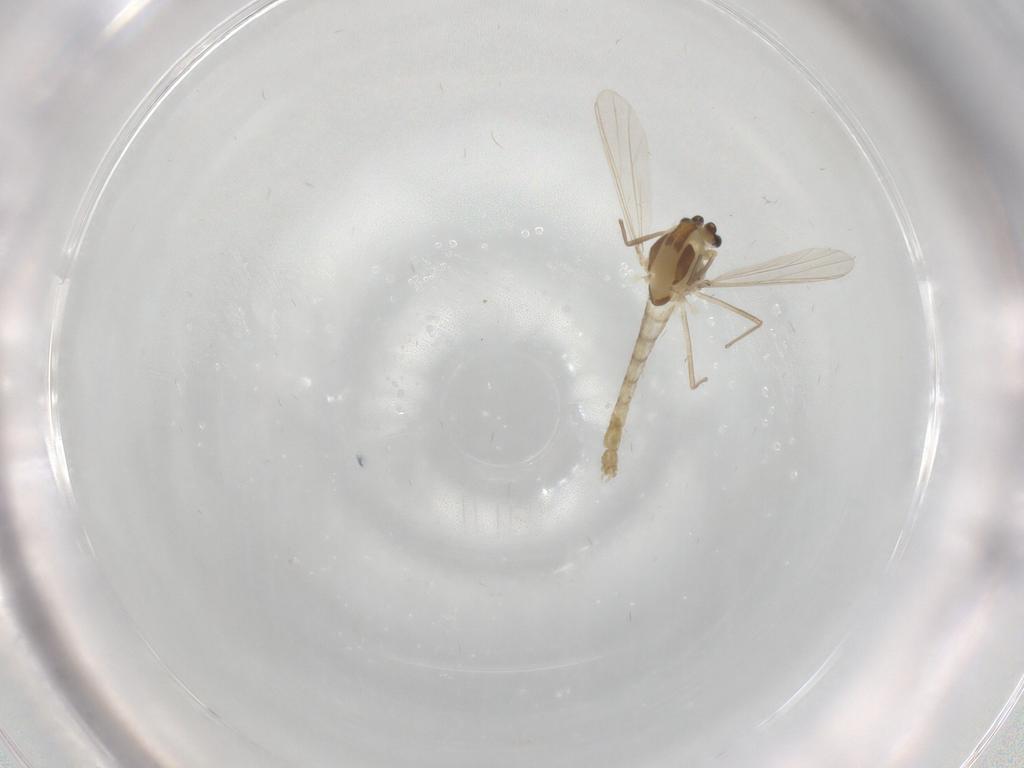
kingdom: Animalia
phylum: Arthropoda
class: Insecta
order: Diptera
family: Chironomidae
